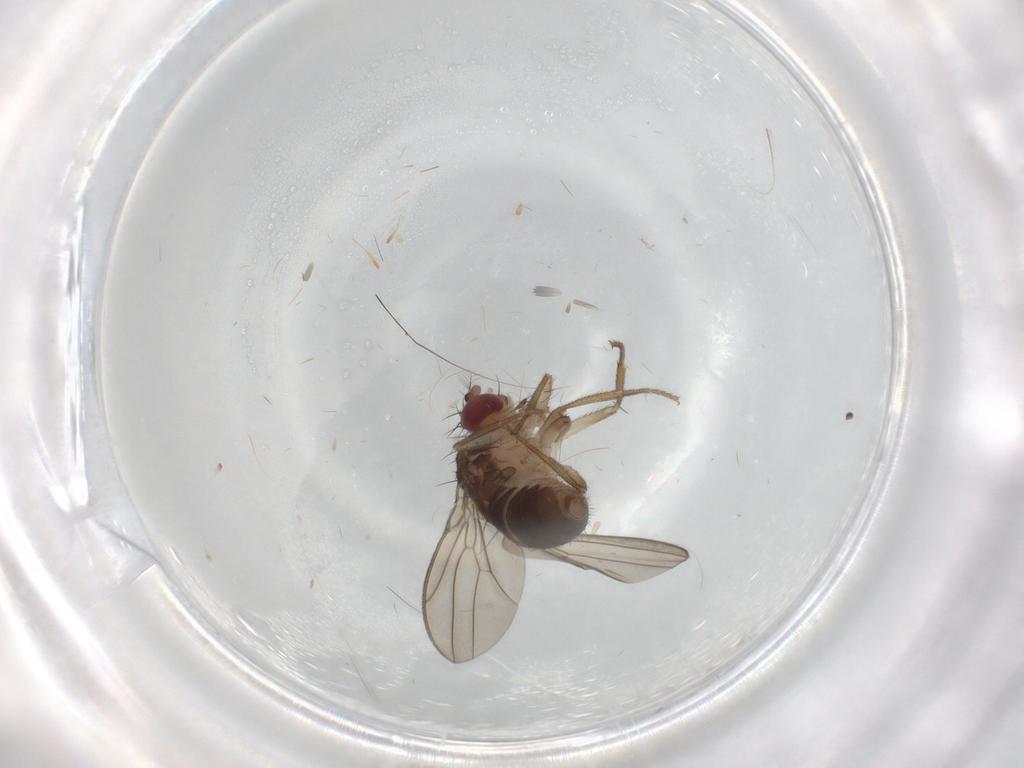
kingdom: Animalia
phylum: Arthropoda
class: Insecta
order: Diptera
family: Drosophilidae
